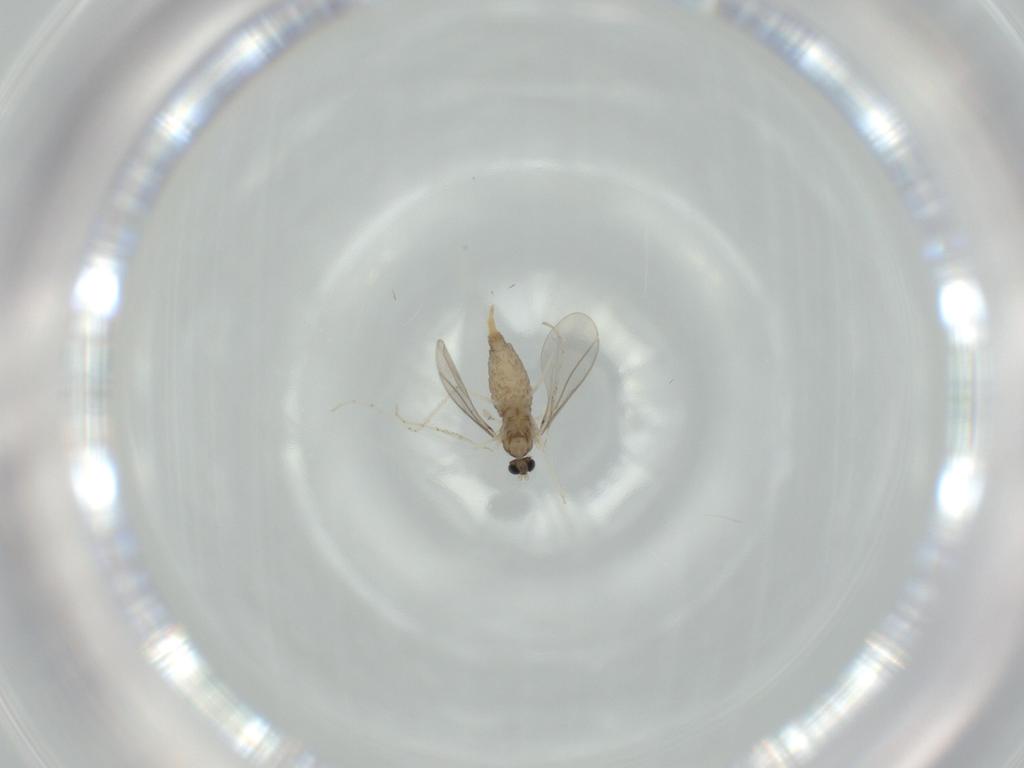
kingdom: Animalia
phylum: Arthropoda
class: Insecta
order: Diptera
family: Cecidomyiidae
